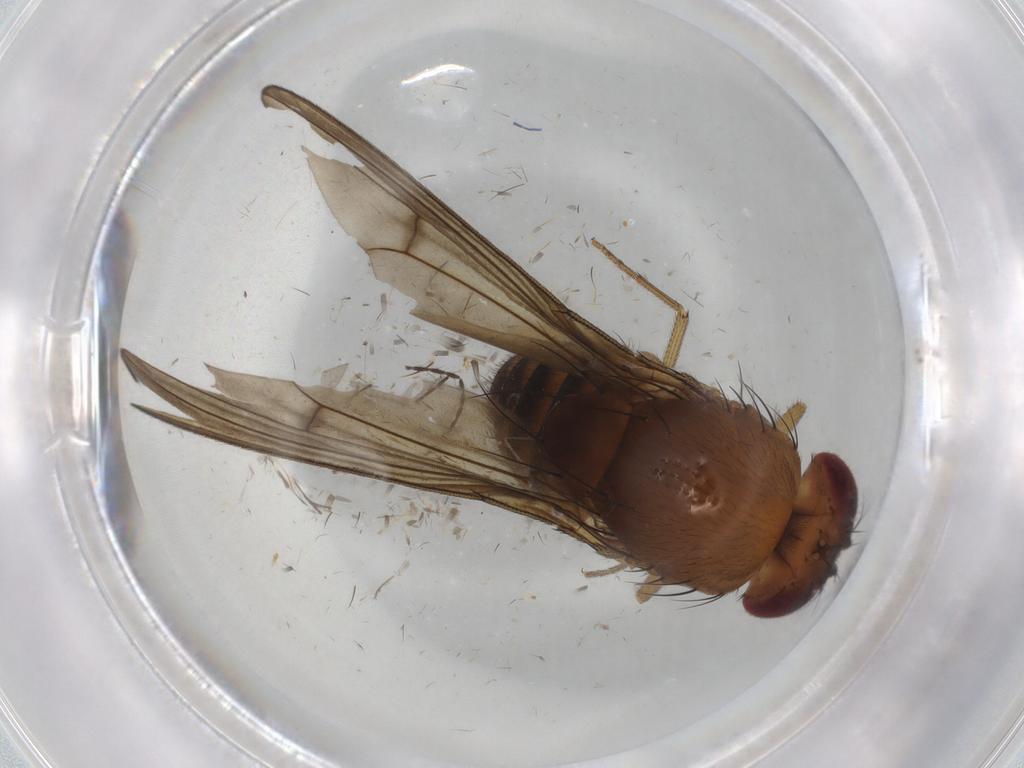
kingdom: Animalia
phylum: Arthropoda
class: Insecta
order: Diptera
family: Drosophilidae
